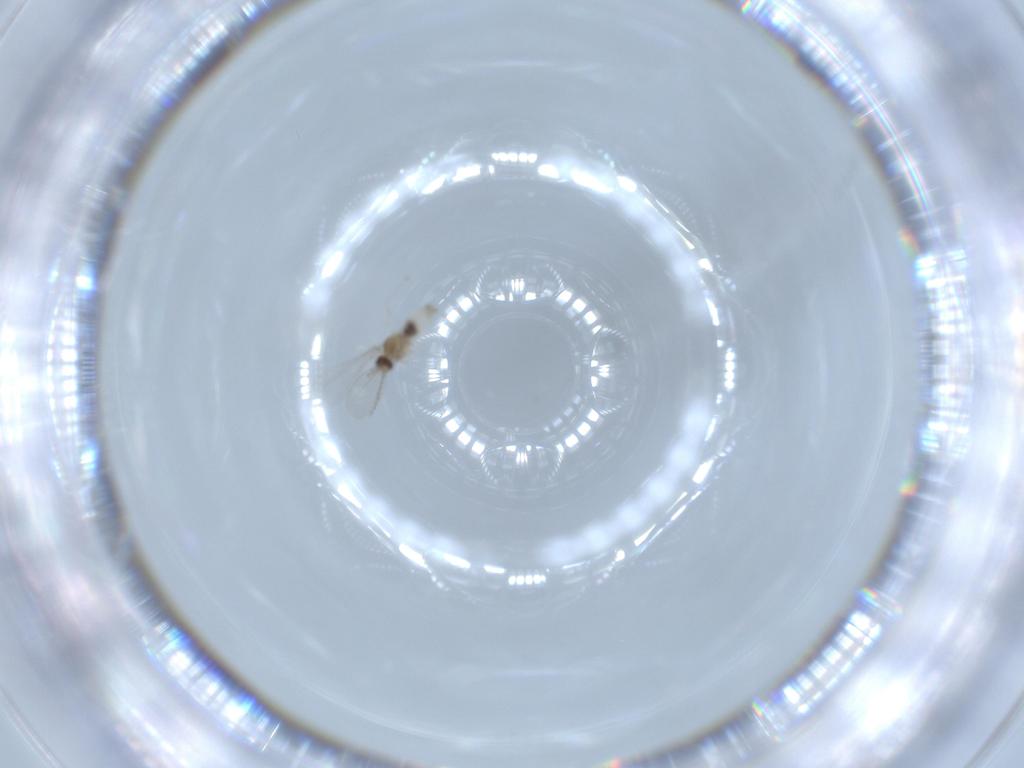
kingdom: Animalia
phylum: Arthropoda
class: Insecta
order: Diptera
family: Cecidomyiidae
